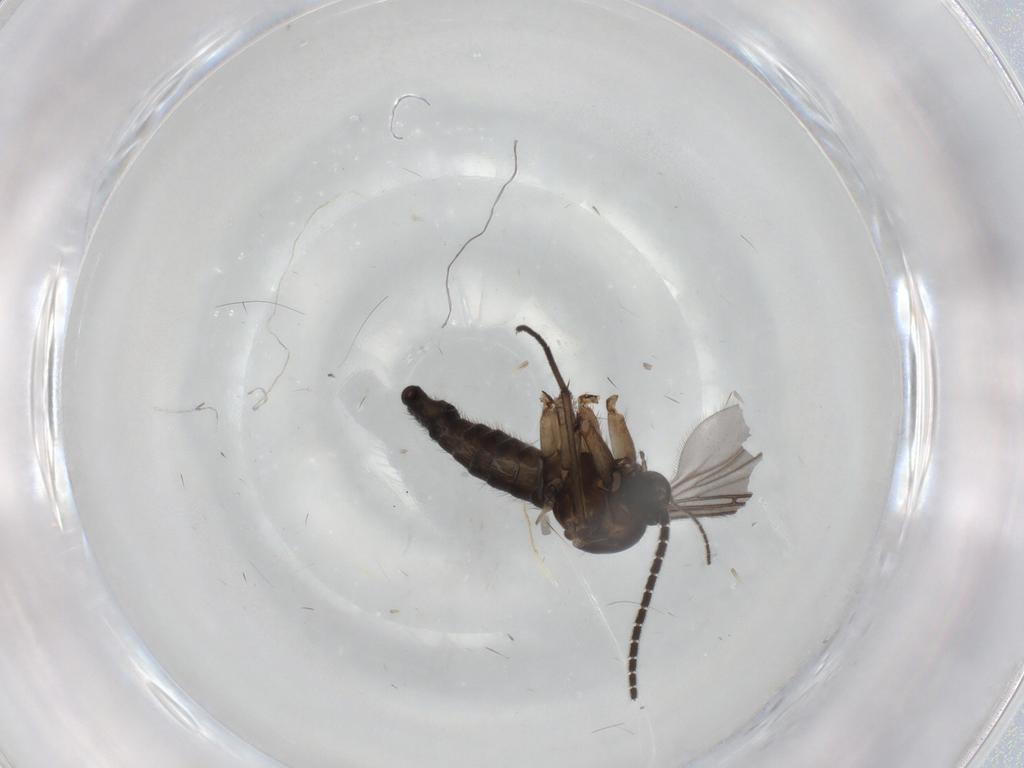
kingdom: Animalia
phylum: Arthropoda
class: Insecta
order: Diptera
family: Sciaridae
